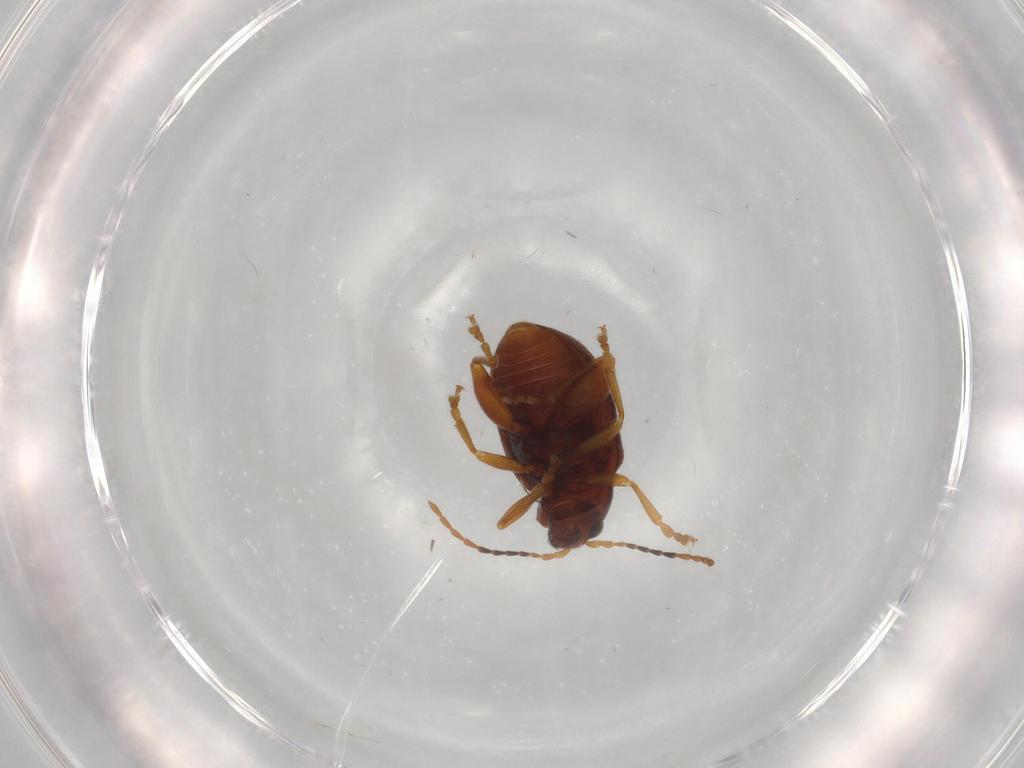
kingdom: Animalia
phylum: Arthropoda
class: Insecta
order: Coleoptera
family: Chrysomelidae
